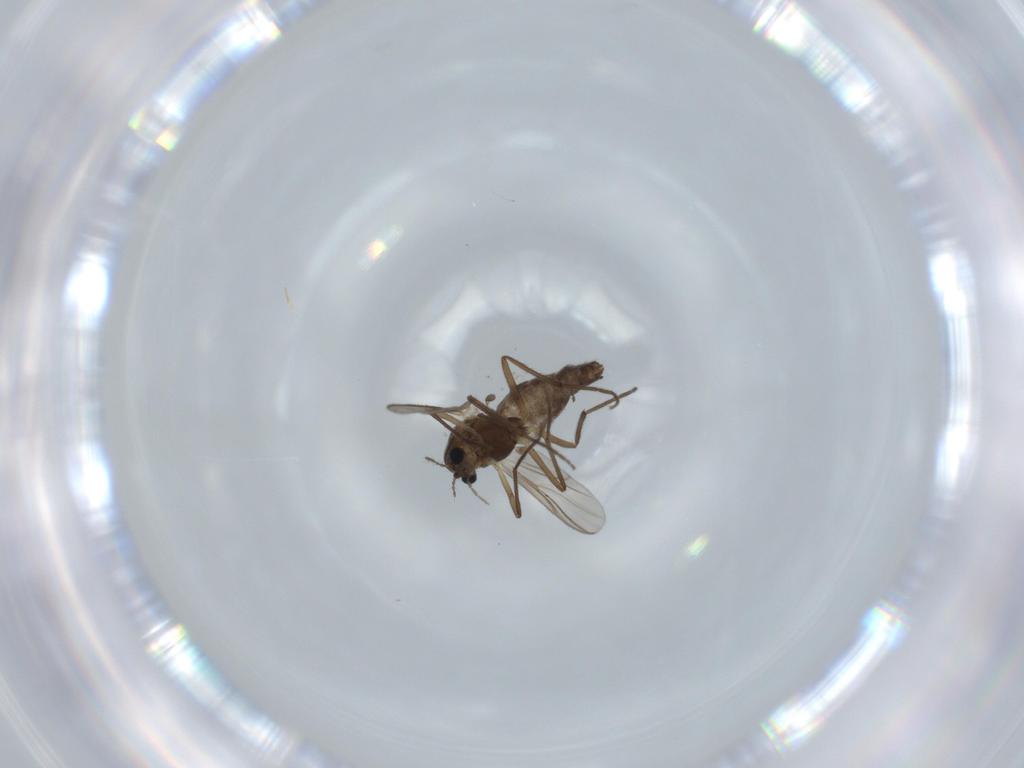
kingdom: Animalia
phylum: Arthropoda
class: Insecta
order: Diptera
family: Chironomidae
